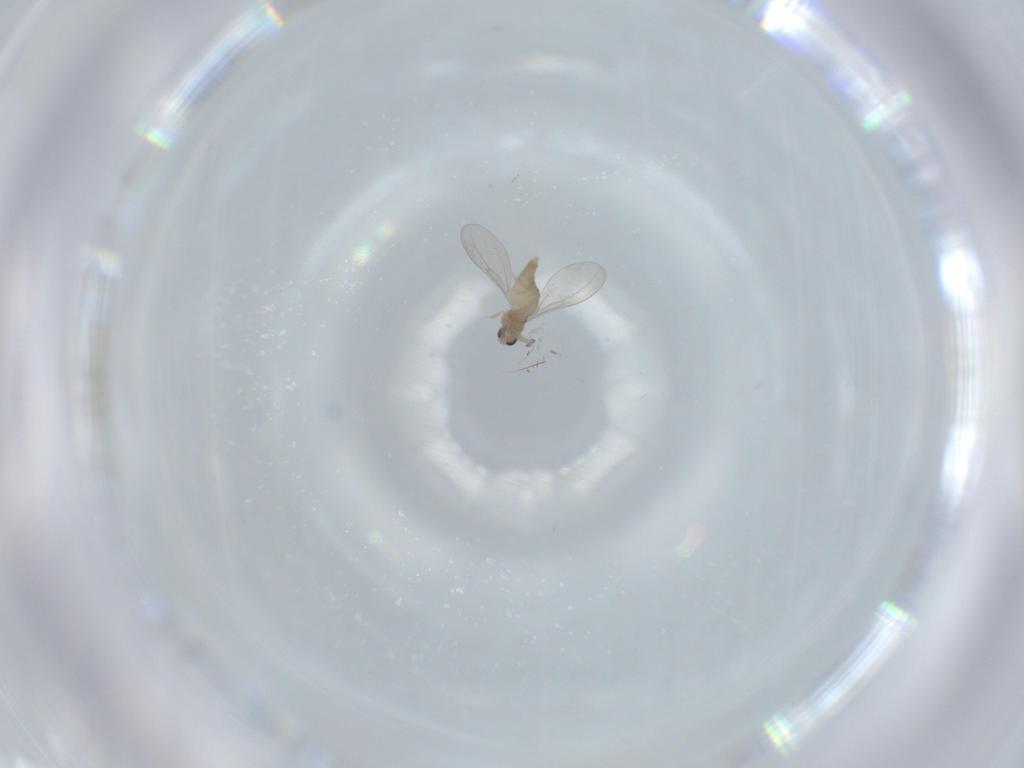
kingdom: Animalia
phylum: Arthropoda
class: Insecta
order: Diptera
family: Cecidomyiidae
